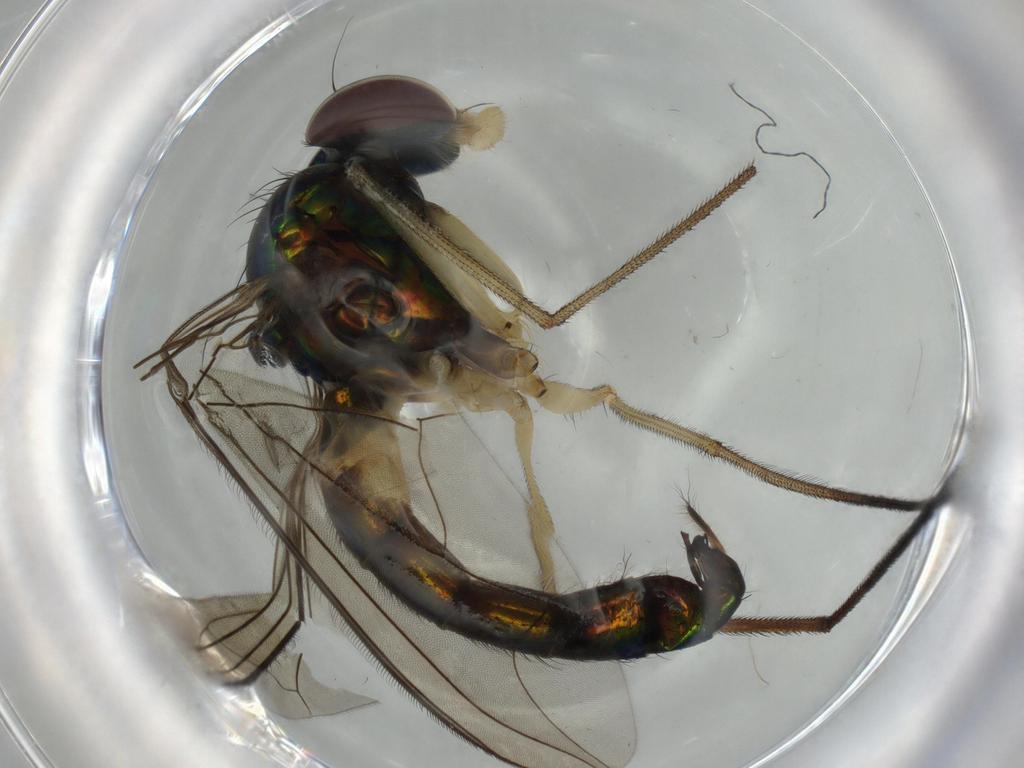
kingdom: Animalia
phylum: Arthropoda
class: Insecta
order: Diptera
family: Dolichopodidae
